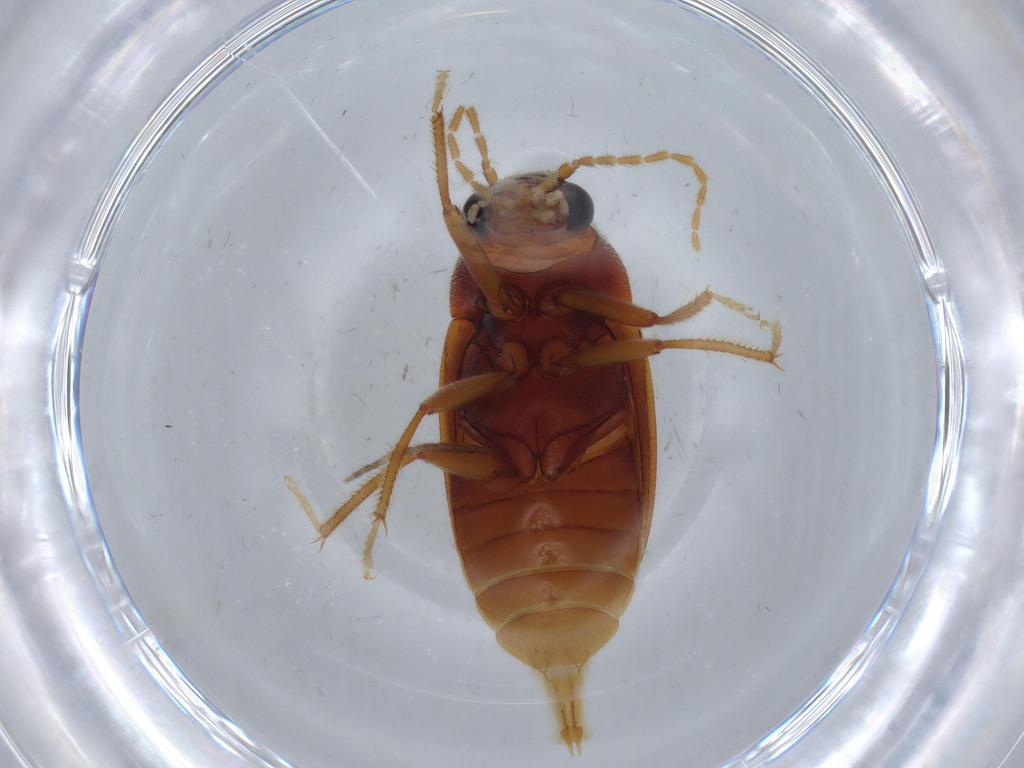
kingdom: Animalia
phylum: Arthropoda
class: Insecta
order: Coleoptera
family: Ptilodactylidae
